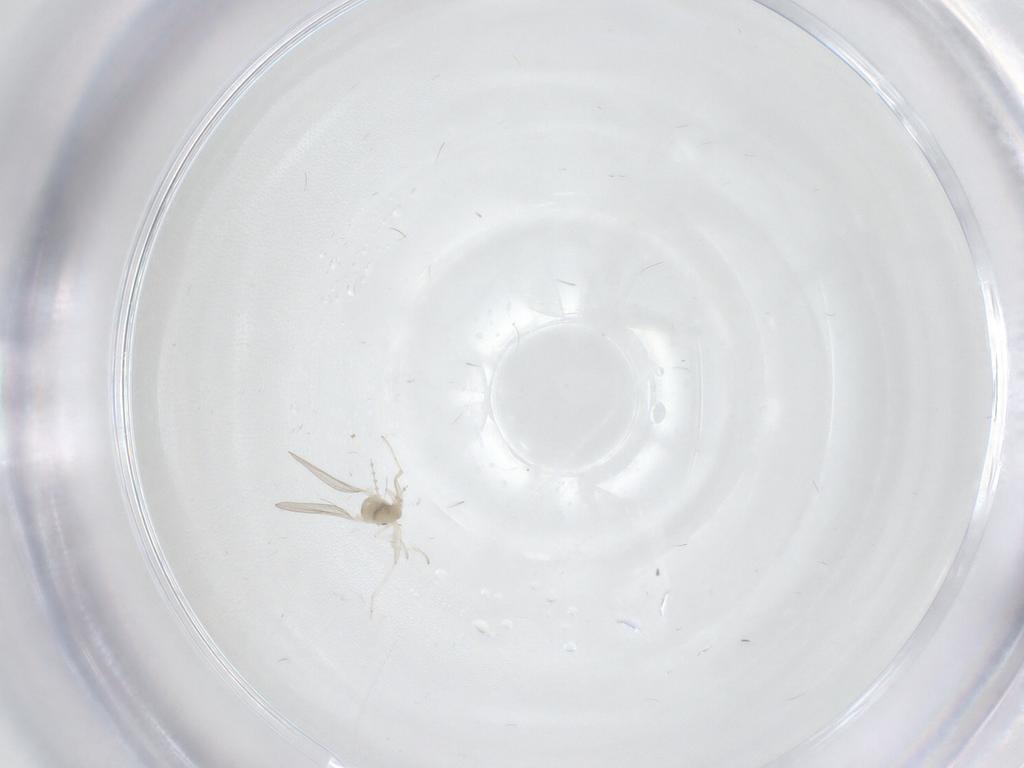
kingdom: Animalia
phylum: Arthropoda
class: Insecta
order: Diptera
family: Cecidomyiidae
